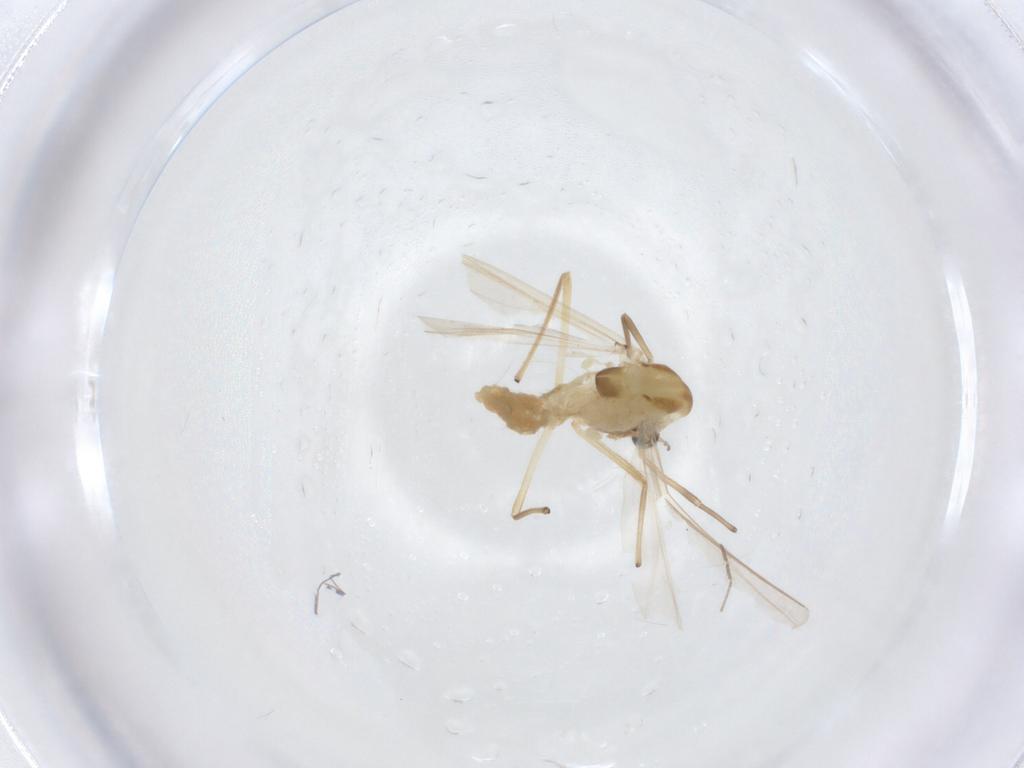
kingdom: Animalia
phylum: Arthropoda
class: Insecta
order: Diptera
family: Chironomidae
